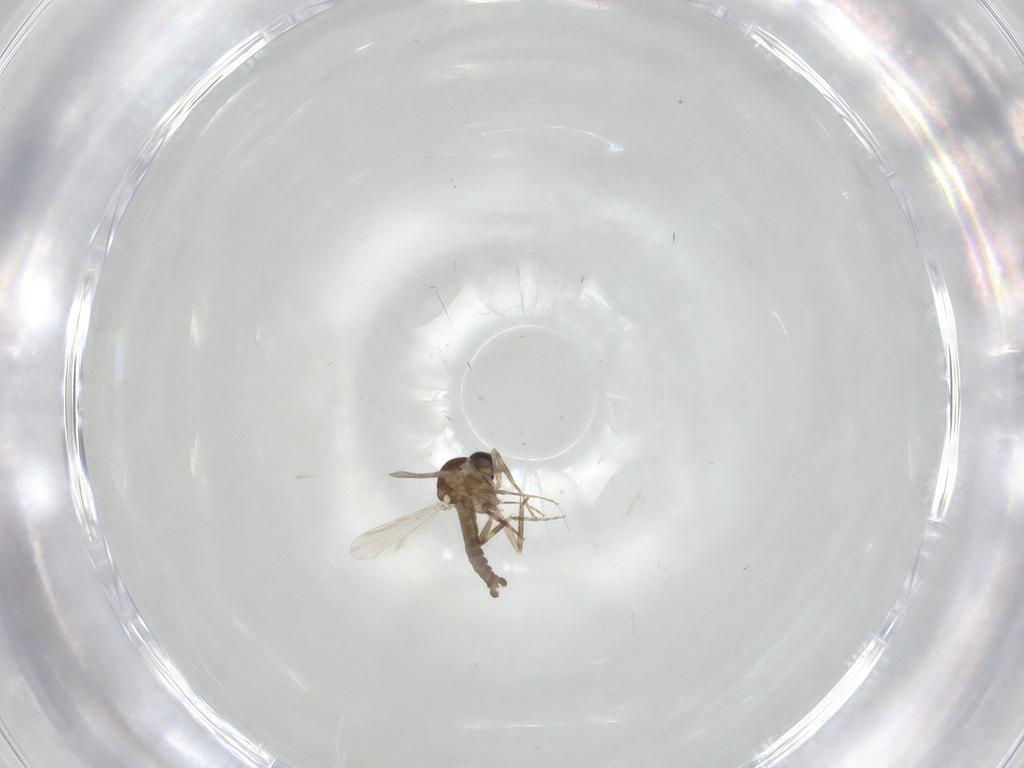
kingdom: Animalia
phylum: Arthropoda
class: Insecta
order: Diptera
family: Ceratopogonidae
